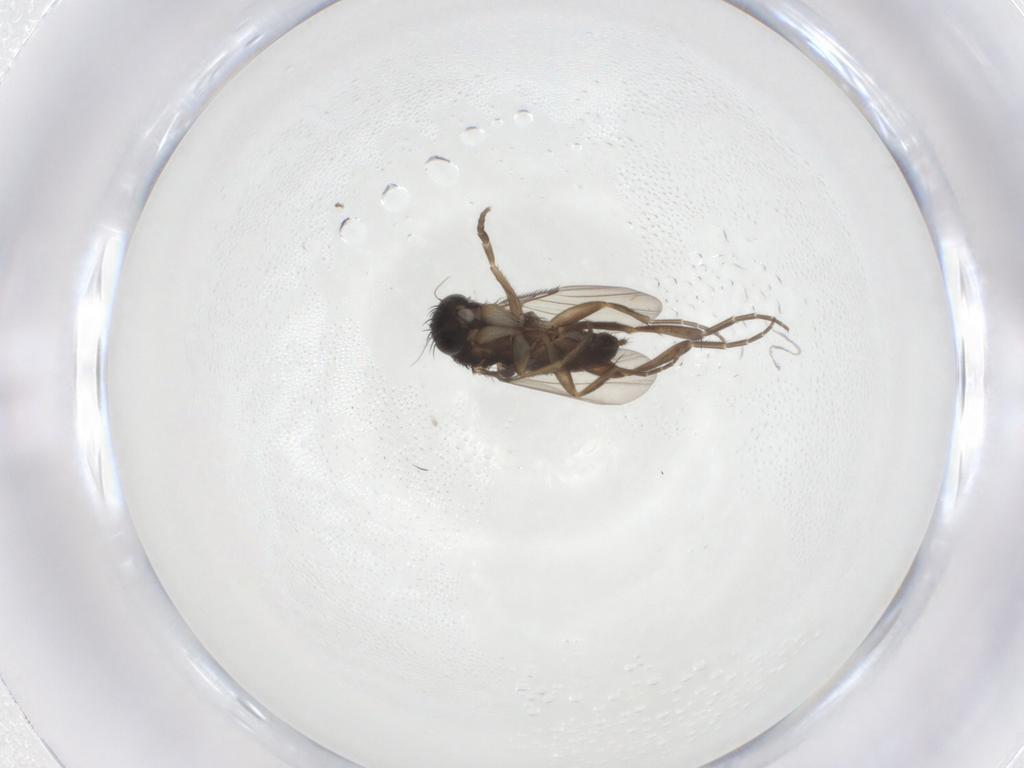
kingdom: Animalia
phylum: Arthropoda
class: Insecta
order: Diptera
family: Phoridae
